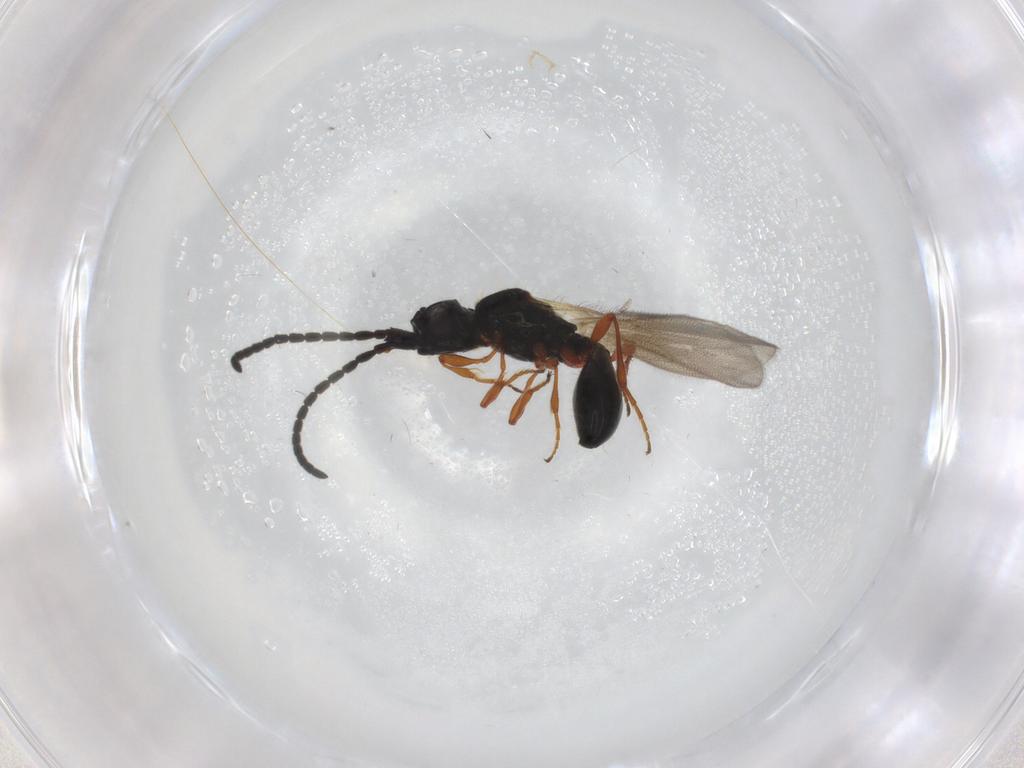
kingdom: Animalia
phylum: Arthropoda
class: Insecta
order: Hymenoptera
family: Diapriidae
